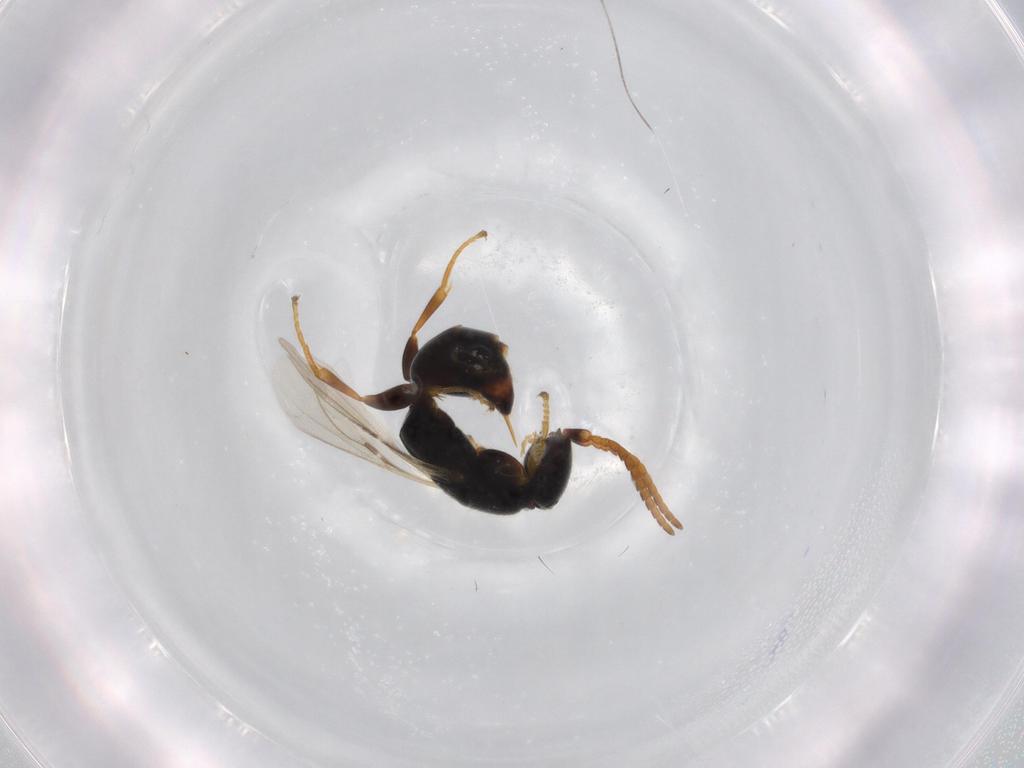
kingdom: Animalia
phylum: Arthropoda
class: Insecta
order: Hymenoptera
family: Bethylidae
